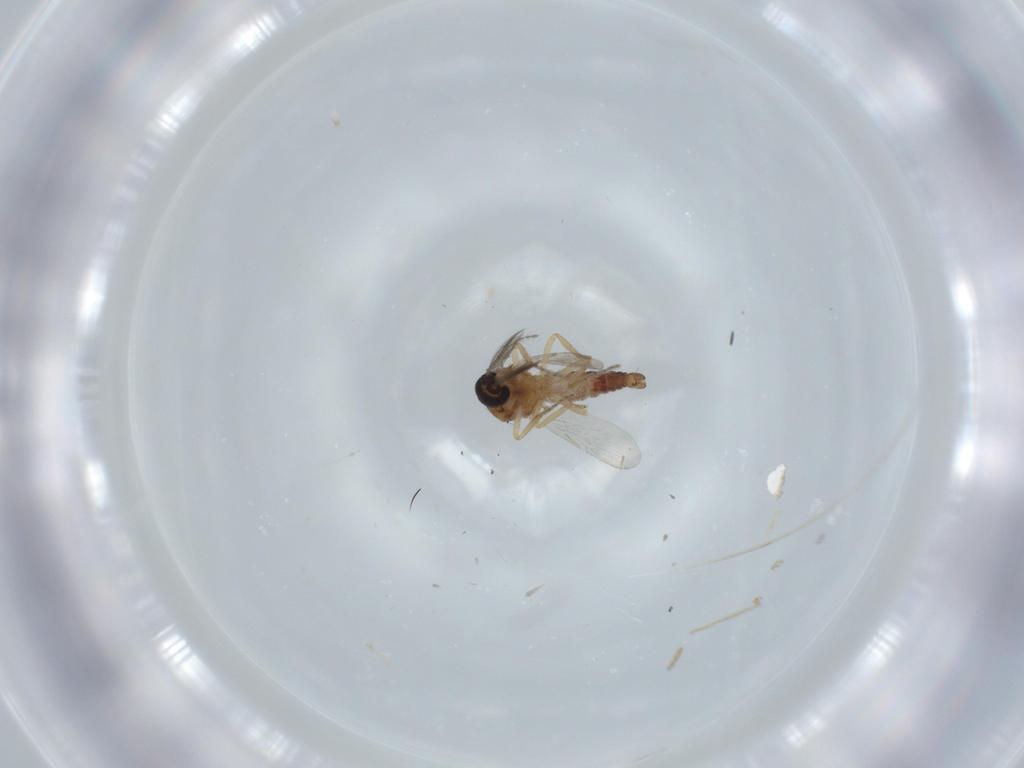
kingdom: Animalia
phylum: Arthropoda
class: Insecta
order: Diptera
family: Ceratopogonidae
